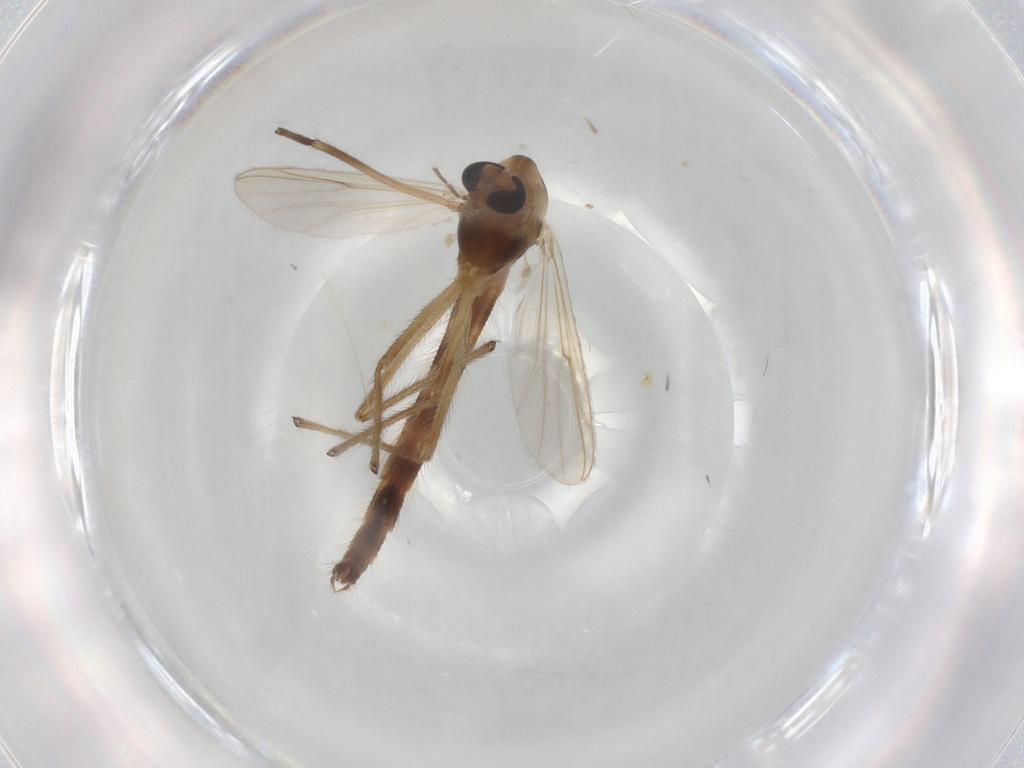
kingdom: Animalia
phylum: Arthropoda
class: Insecta
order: Diptera
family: Chironomidae
